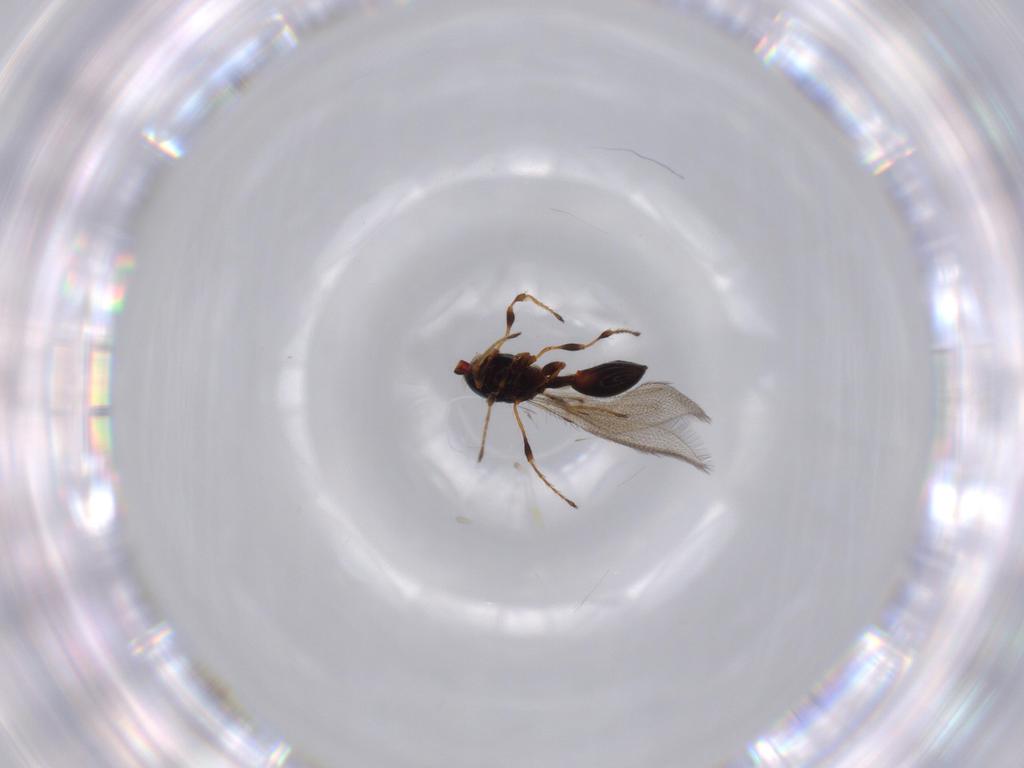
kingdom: Animalia
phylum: Arthropoda
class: Insecta
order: Hymenoptera
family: Diapriidae
